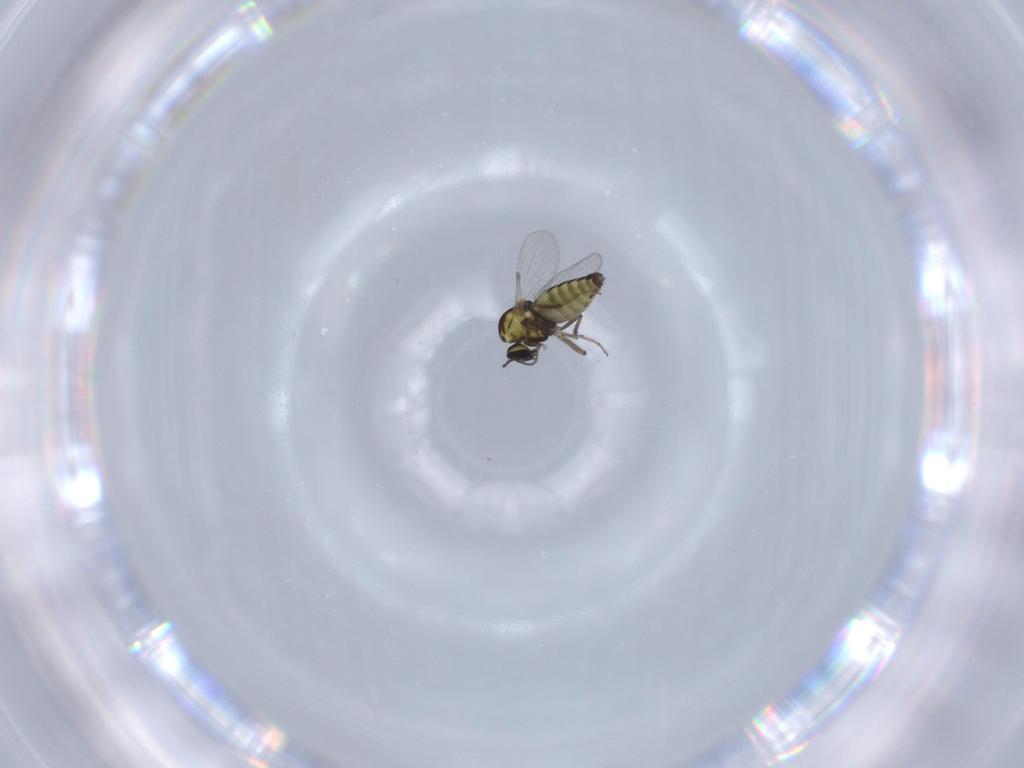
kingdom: Animalia
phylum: Arthropoda
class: Insecta
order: Diptera
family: Ceratopogonidae
